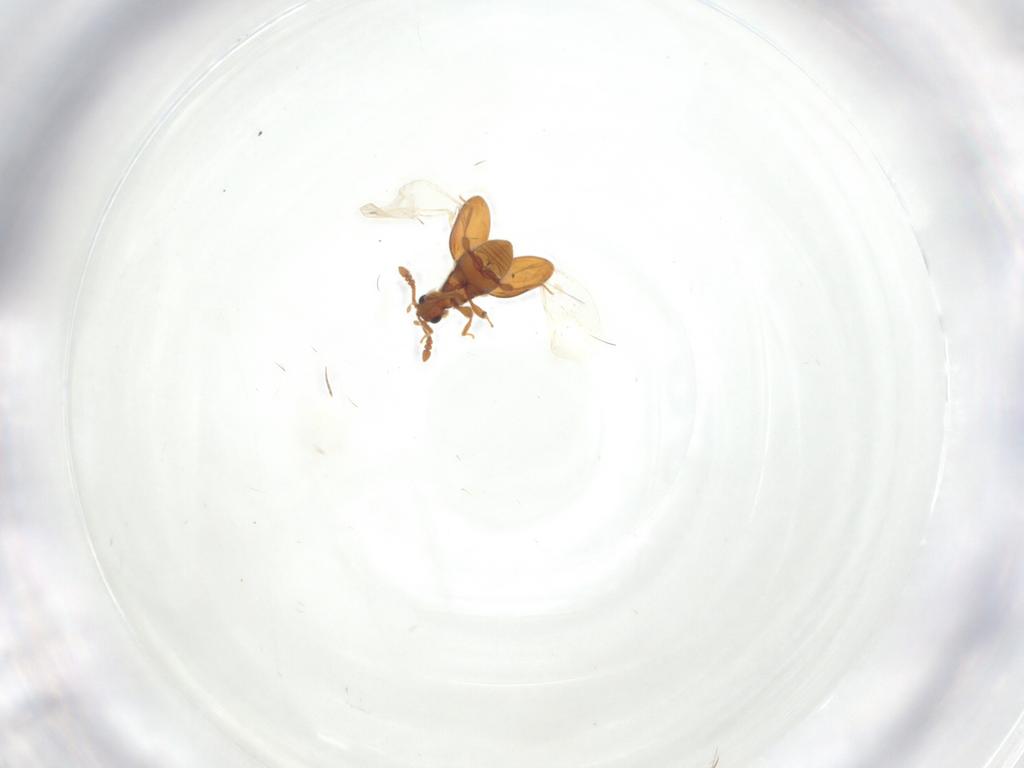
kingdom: Animalia
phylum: Arthropoda
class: Insecta
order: Coleoptera
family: Staphylinidae
